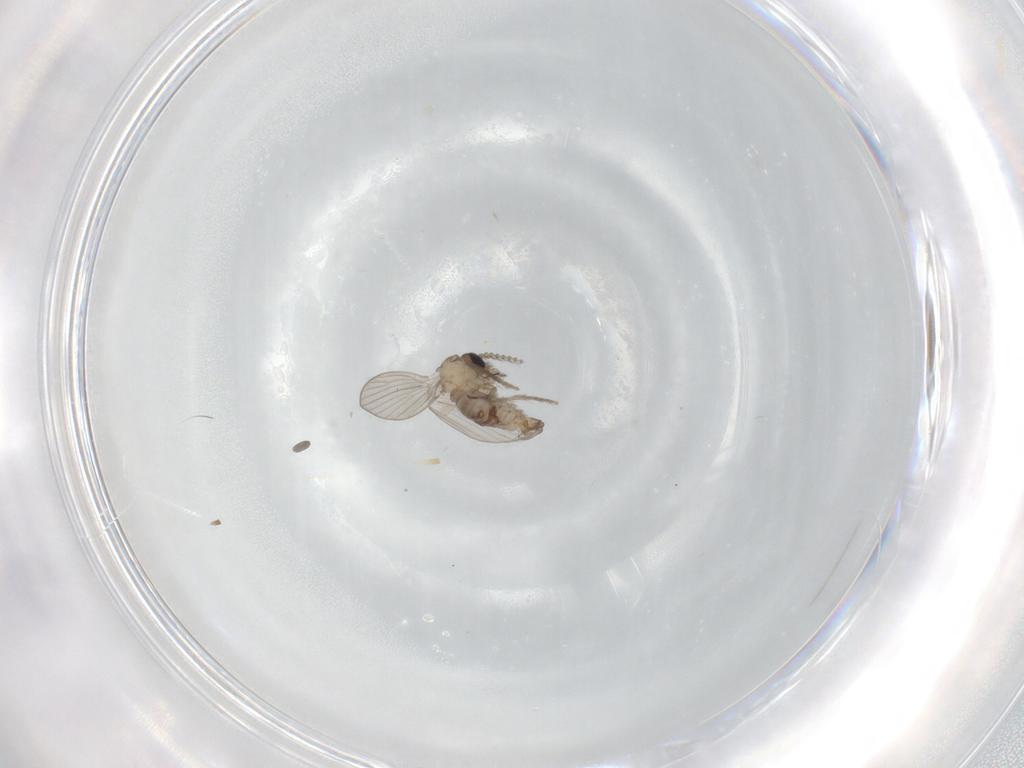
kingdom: Animalia
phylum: Arthropoda
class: Insecta
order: Diptera
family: Psychodidae
